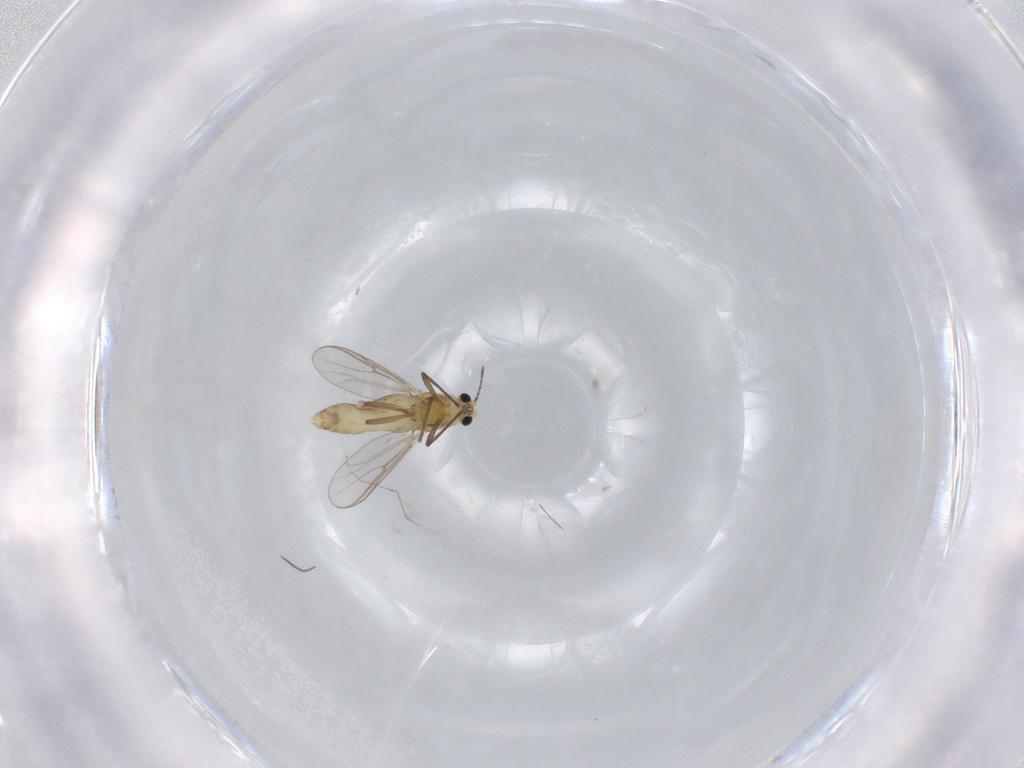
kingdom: Animalia
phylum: Arthropoda
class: Insecta
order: Diptera
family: Chironomidae
